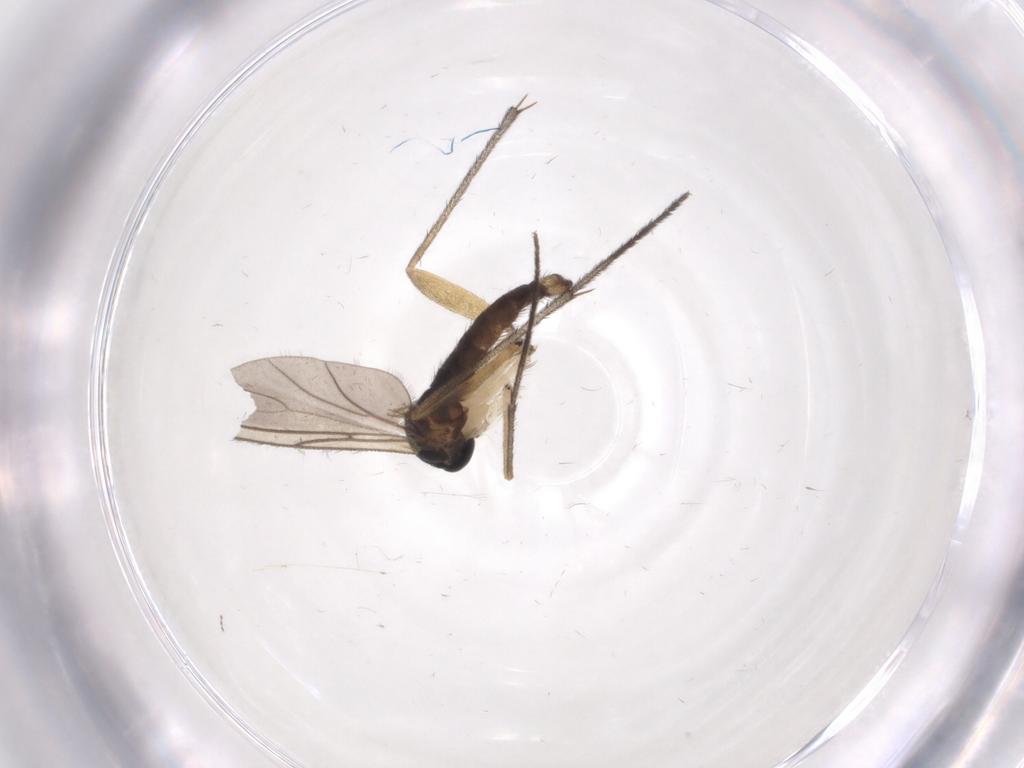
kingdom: Animalia
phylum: Arthropoda
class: Insecta
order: Diptera
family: Sciaridae
